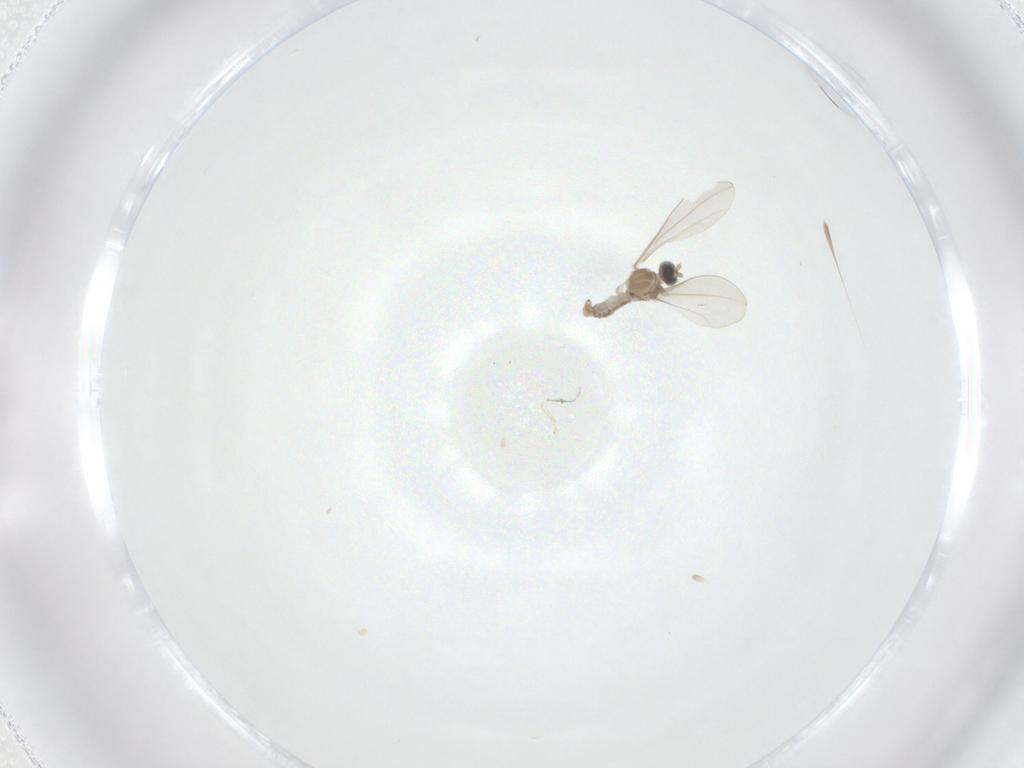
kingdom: Animalia
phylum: Arthropoda
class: Insecta
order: Diptera
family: Cecidomyiidae
